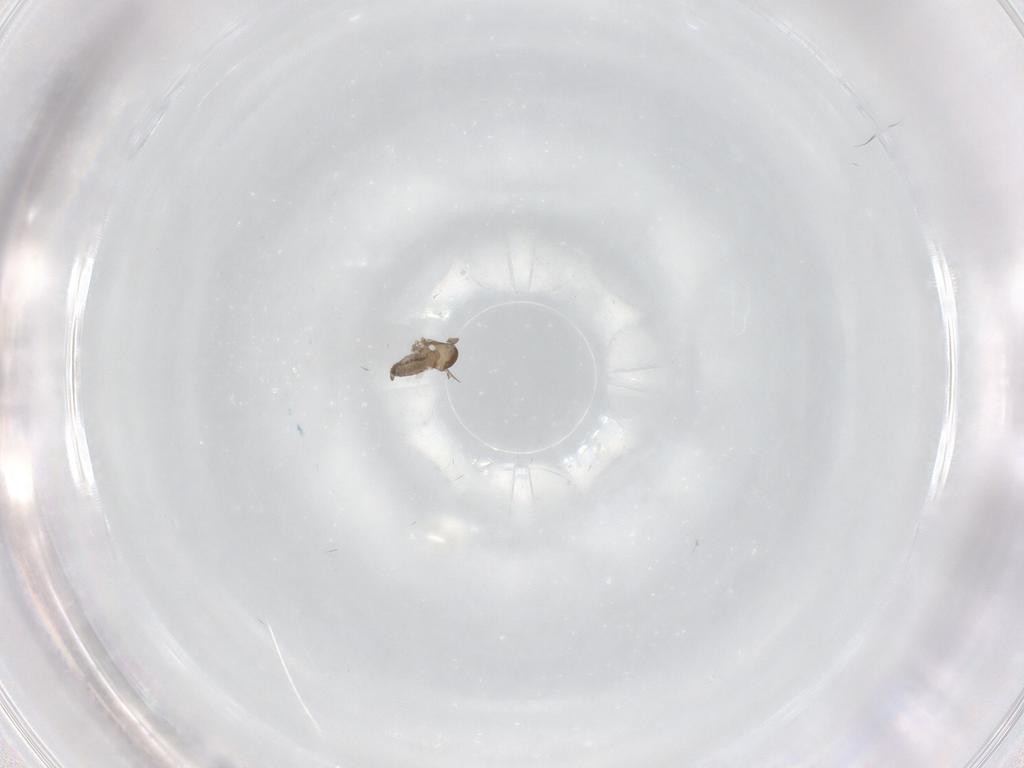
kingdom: Animalia
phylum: Arthropoda
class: Insecta
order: Diptera
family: Cecidomyiidae
